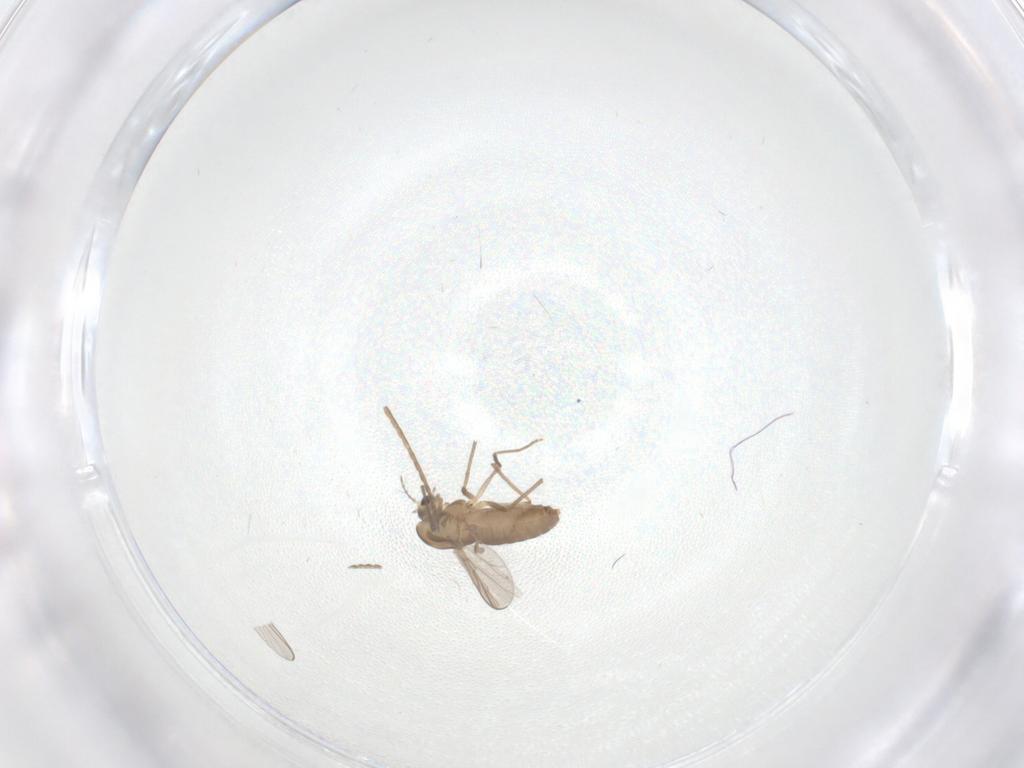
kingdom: Animalia
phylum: Arthropoda
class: Insecta
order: Diptera
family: Chironomidae
